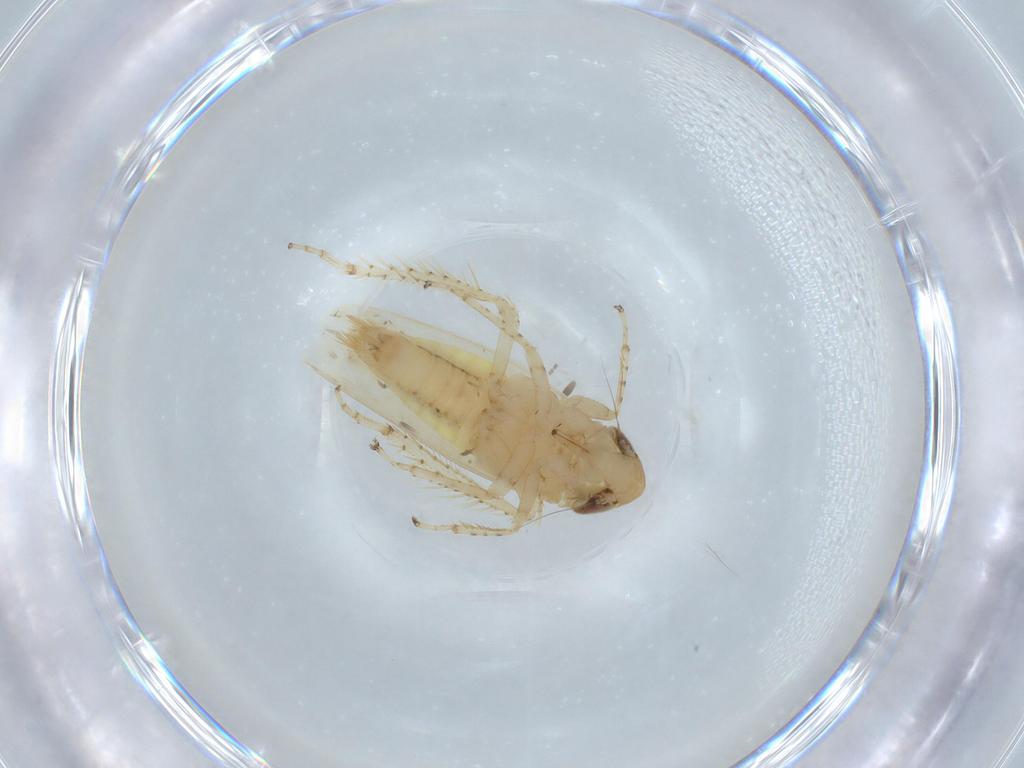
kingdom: Animalia
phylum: Arthropoda
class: Insecta
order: Hemiptera
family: Cicadellidae
